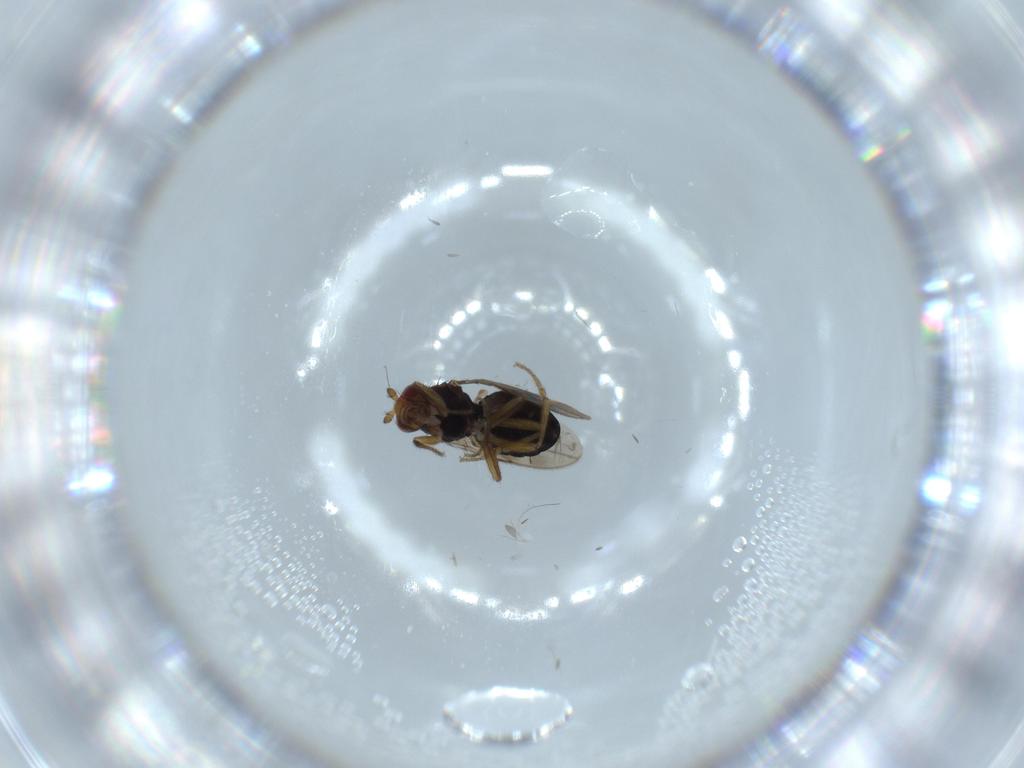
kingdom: Animalia
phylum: Arthropoda
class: Insecta
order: Diptera
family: Sphaeroceridae
